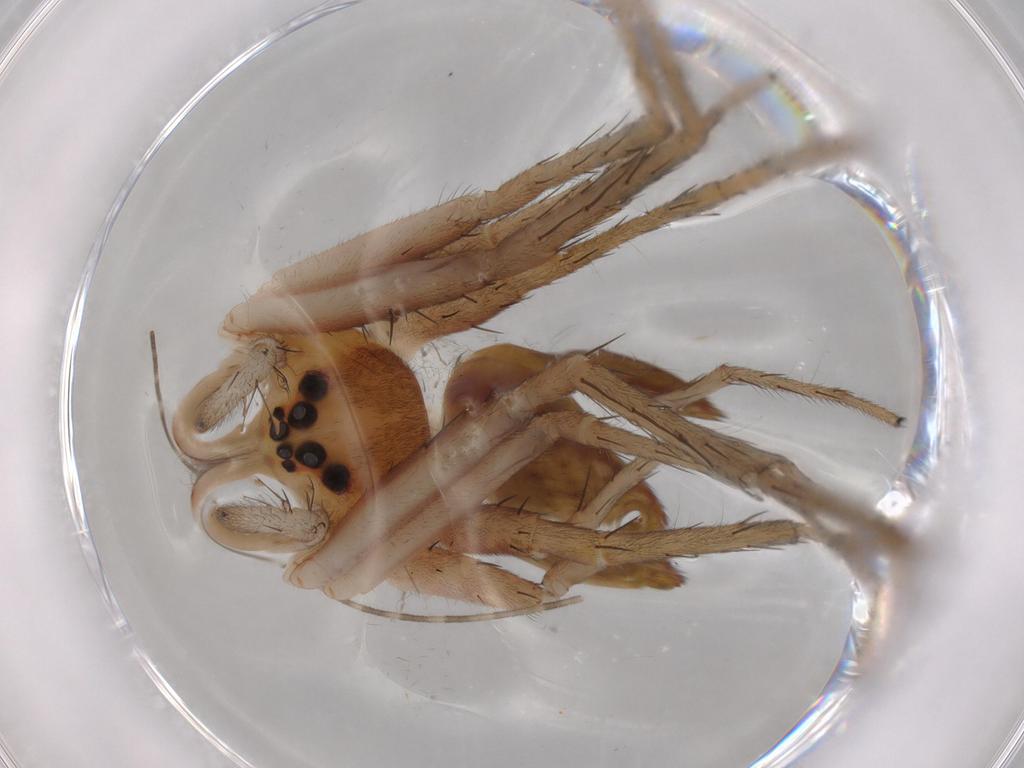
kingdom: Animalia
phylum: Arthropoda
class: Arachnida
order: Araneae
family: Pisauridae
